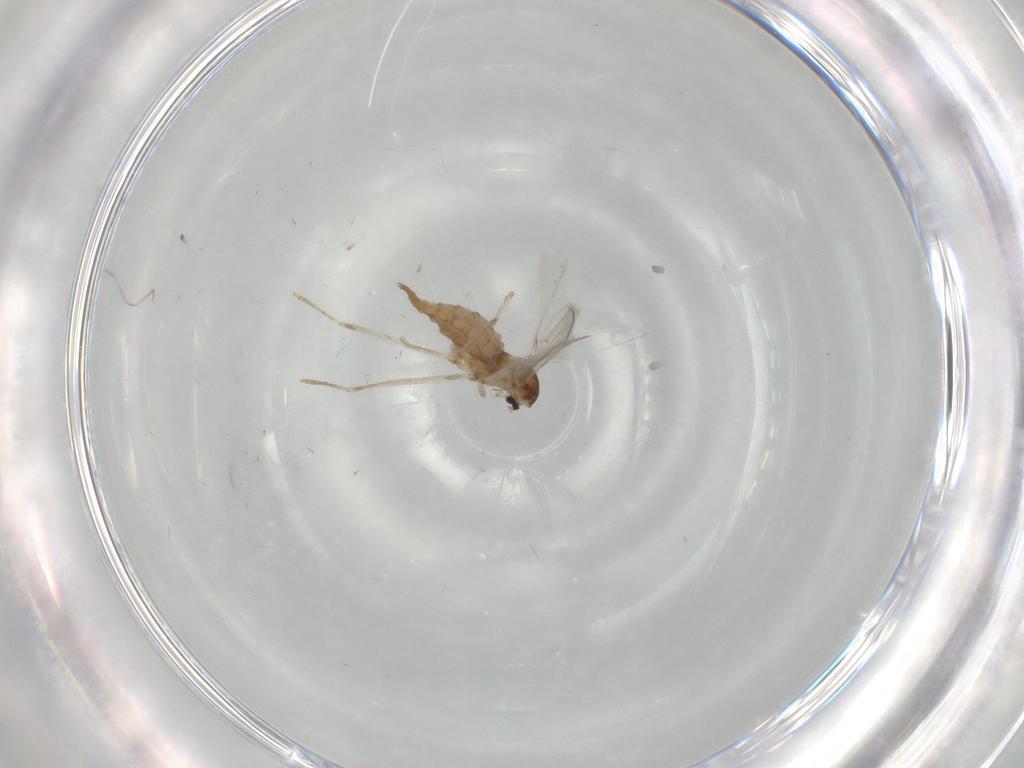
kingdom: Animalia
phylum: Arthropoda
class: Insecta
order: Diptera
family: Cecidomyiidae
